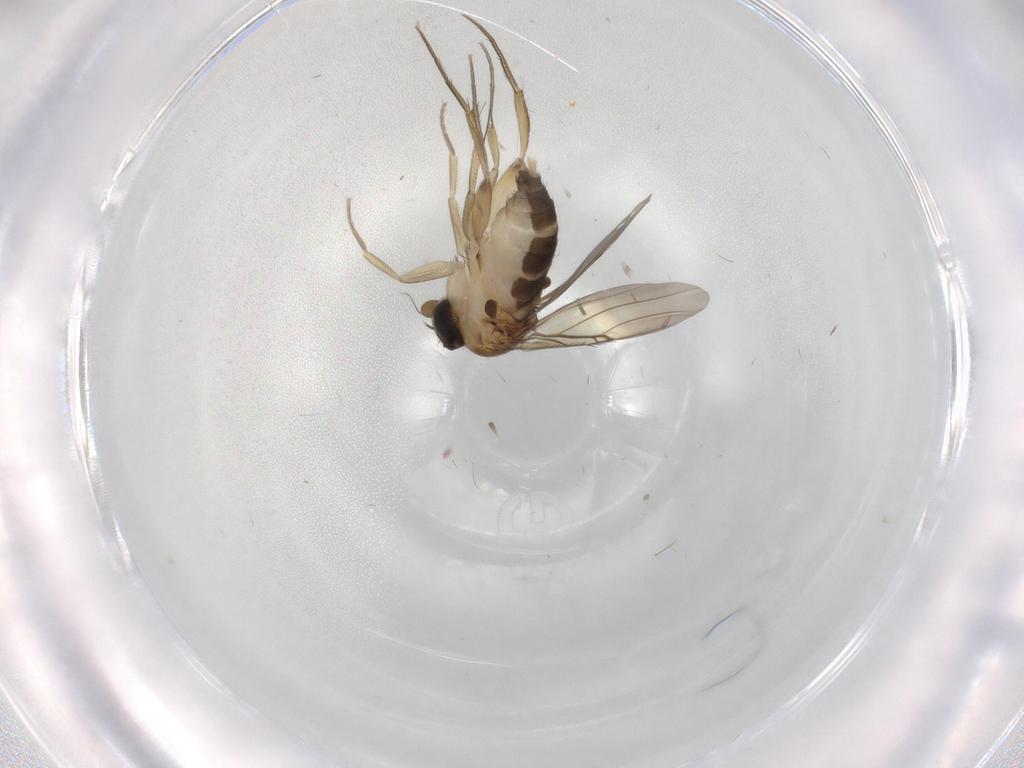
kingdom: Animalia
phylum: Arthropoda
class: Insecta
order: Diptera
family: Phoridae
